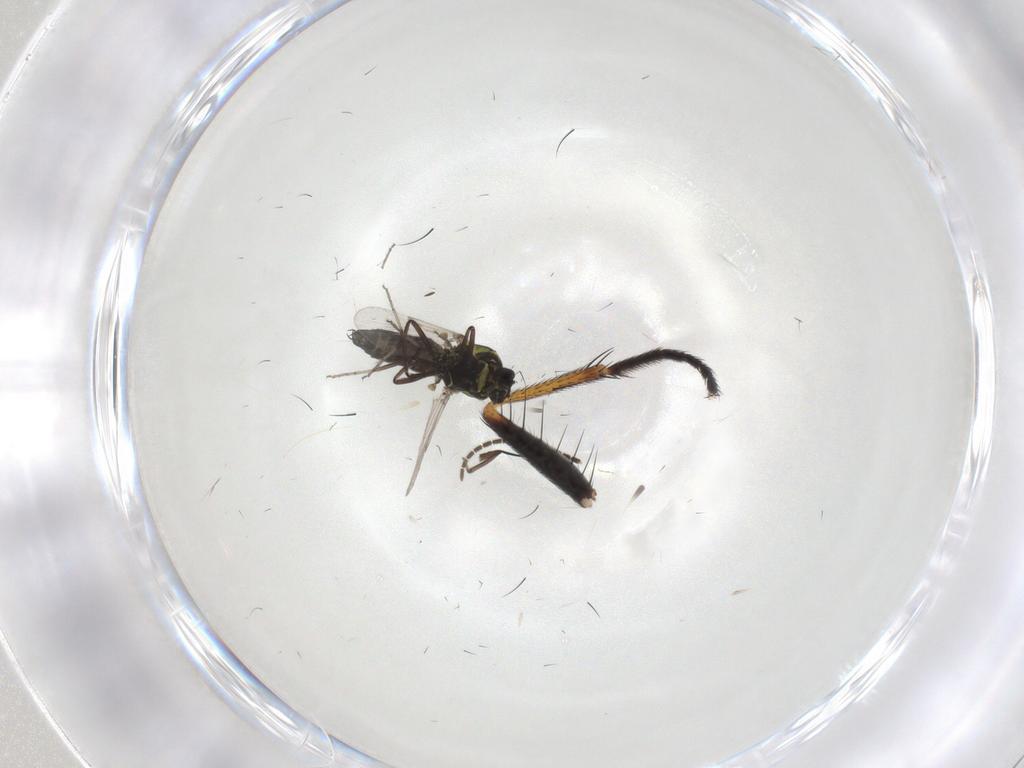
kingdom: Animalia
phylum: Arthropoda
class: Insecta
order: Diptera
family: Ceratopogonidae
